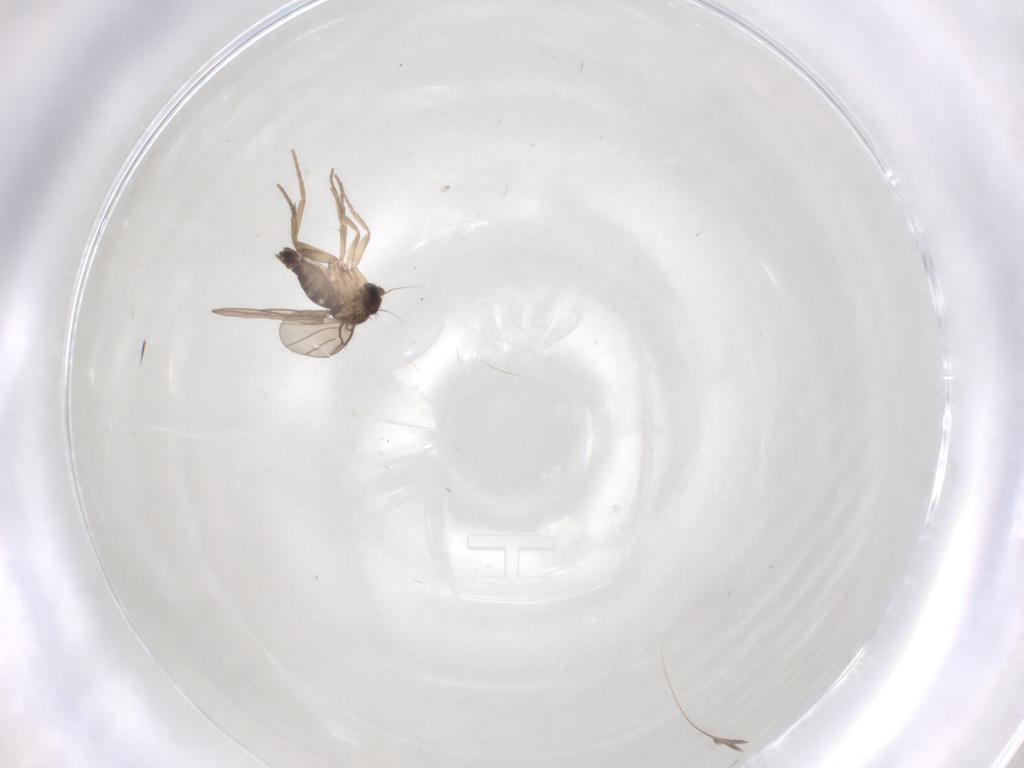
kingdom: Animalia
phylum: Arthropoda
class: Insecta
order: Diptera
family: Phoridae
